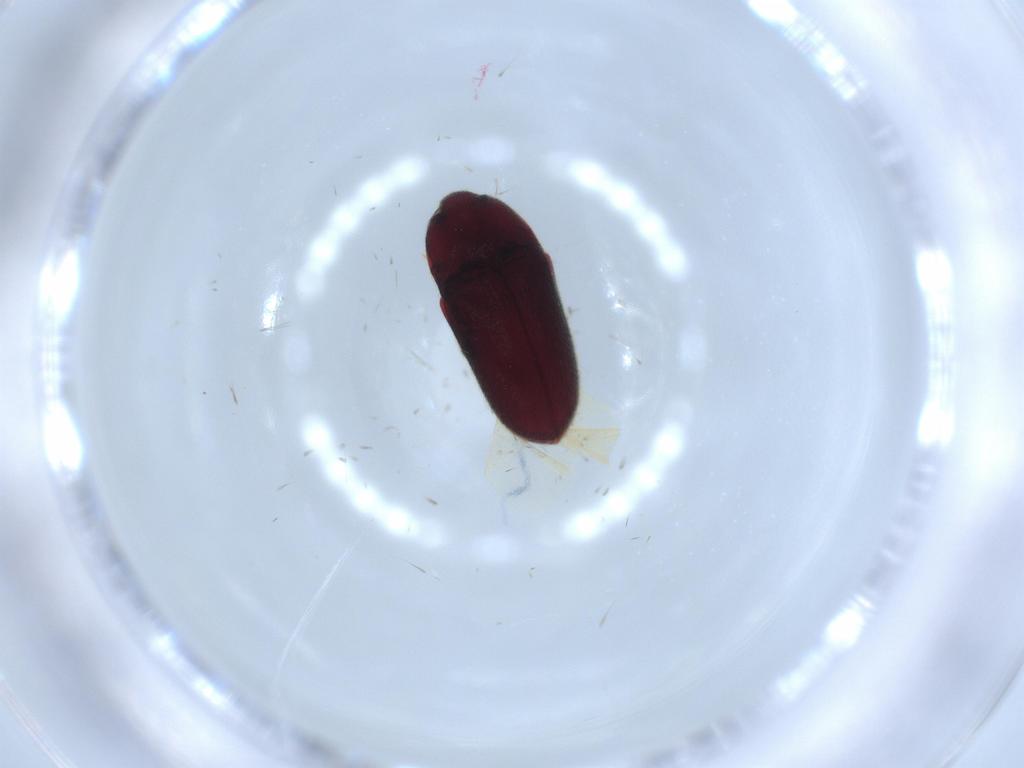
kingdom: Animalia
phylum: Arthropoda
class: Insecta
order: Coleoptera
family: Throscidae
